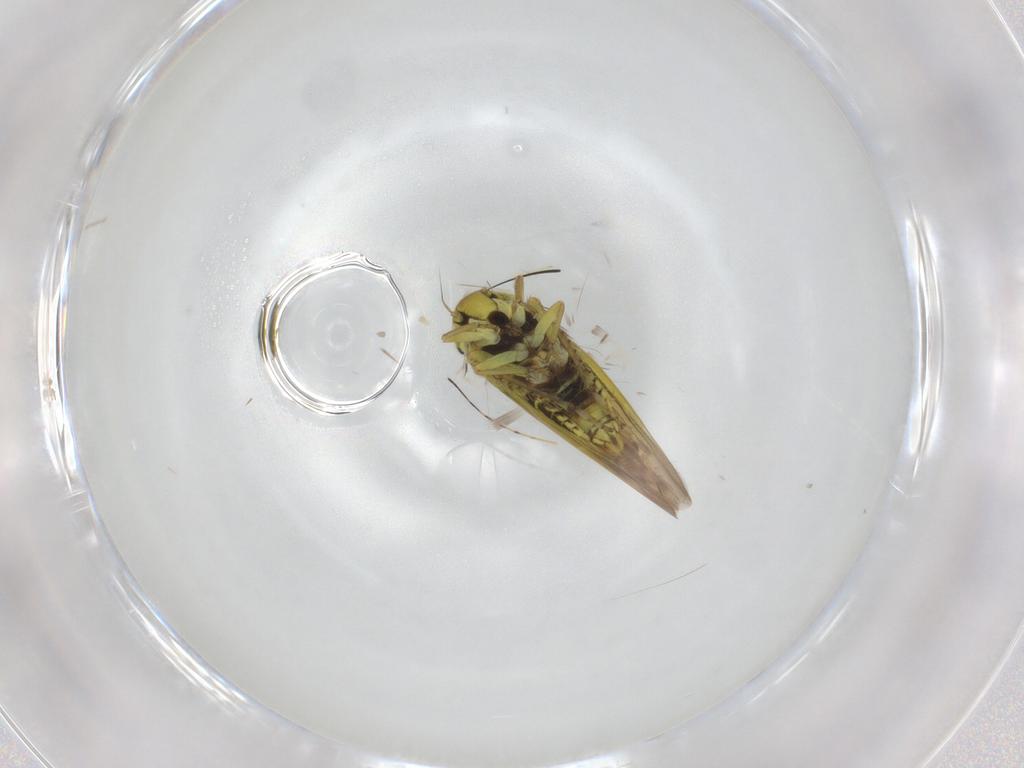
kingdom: Animalia
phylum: Arthropoda
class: Insecta
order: Hemiptera
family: Cicadellidae
